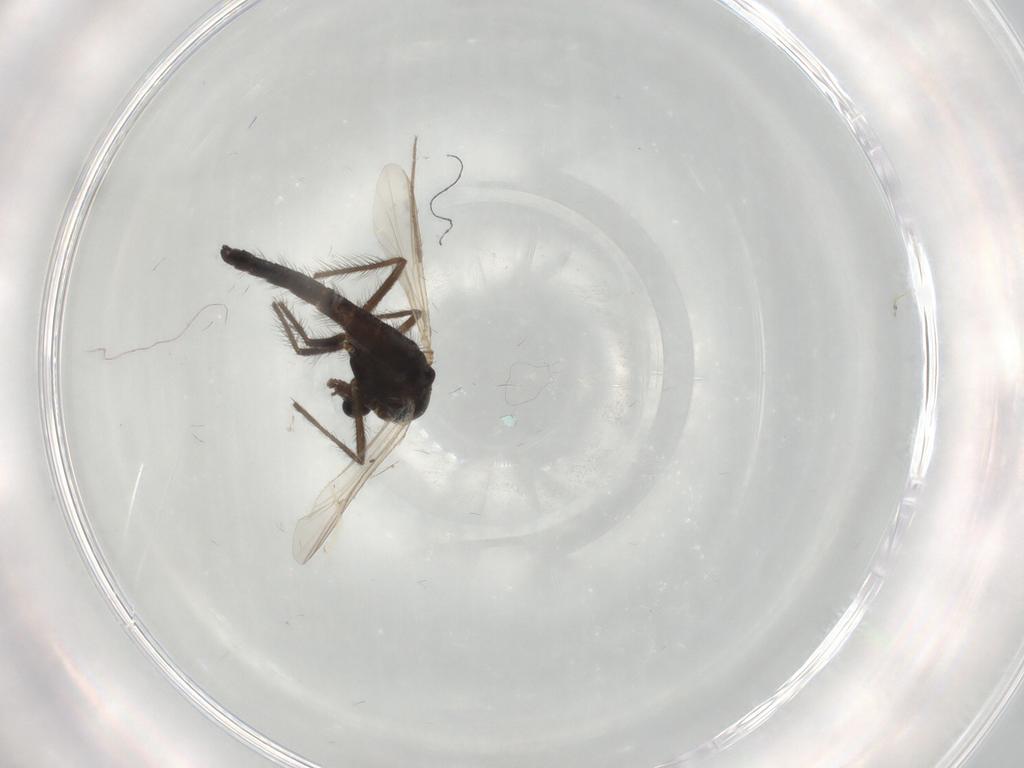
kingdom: Animalia
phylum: Arthropoda
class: Insecta
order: Diptera
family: Chironomidae
